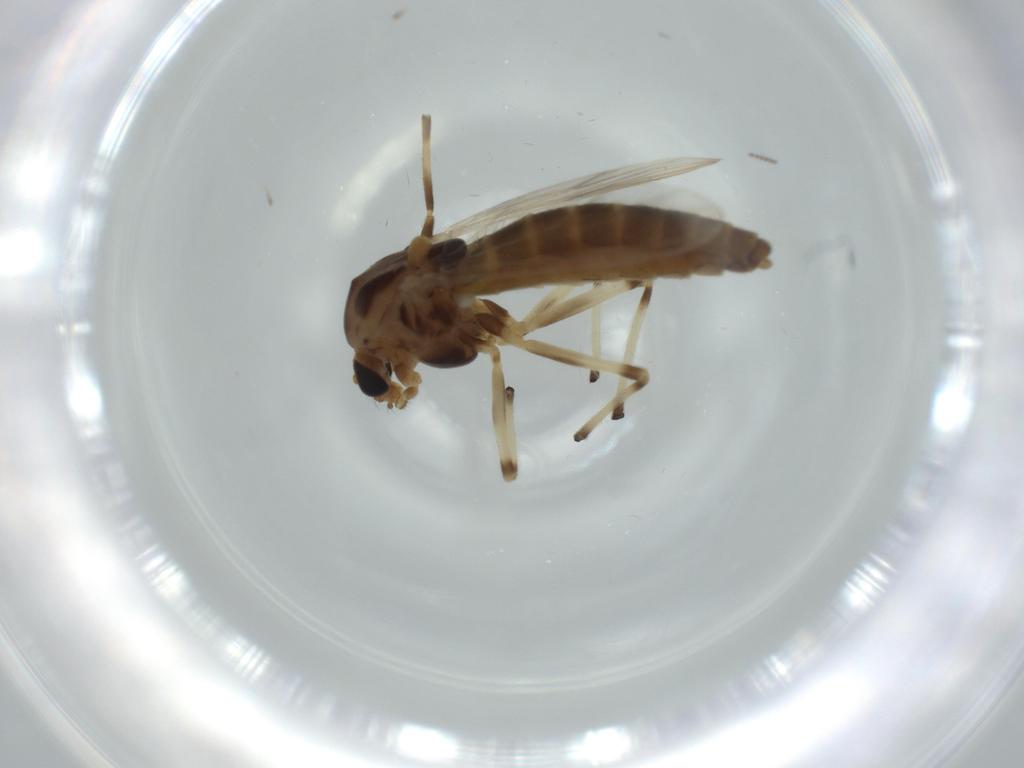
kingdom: Animalia
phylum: Arthropoda
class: Insecta
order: Diptera
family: Chironomidae
